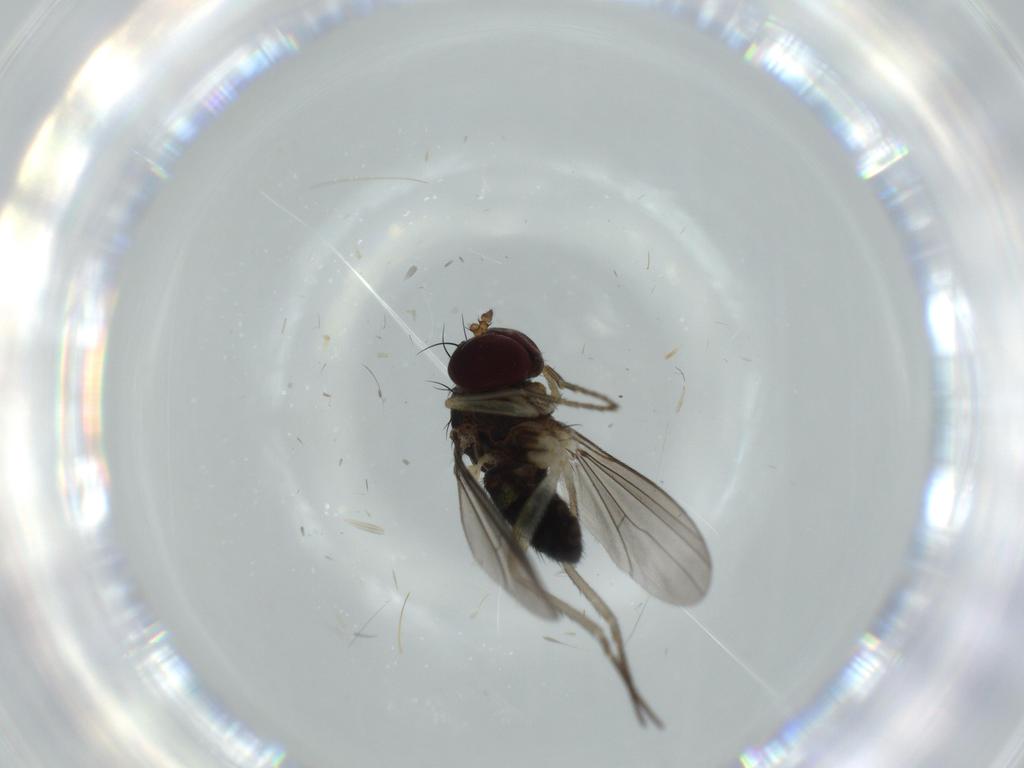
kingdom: Animalia
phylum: Arthropoda
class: Insecta
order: Diptera
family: Dolichopodidae
